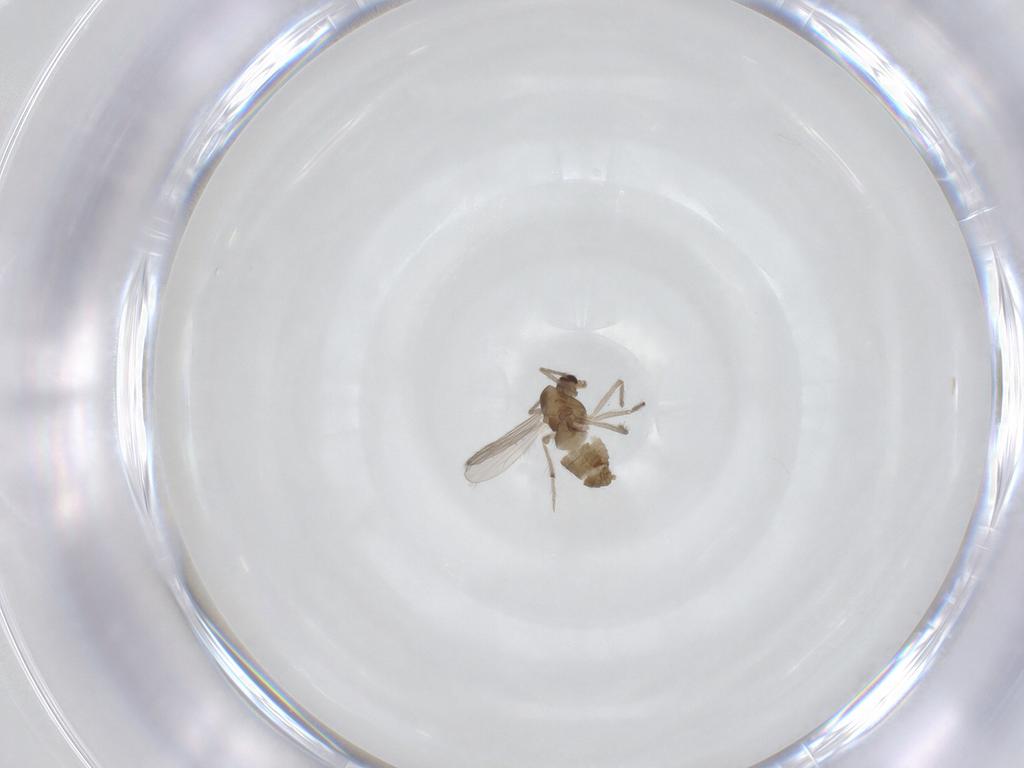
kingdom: Animalia
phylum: Arthropoda
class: Insecta
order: Diptera
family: Chironomidae
